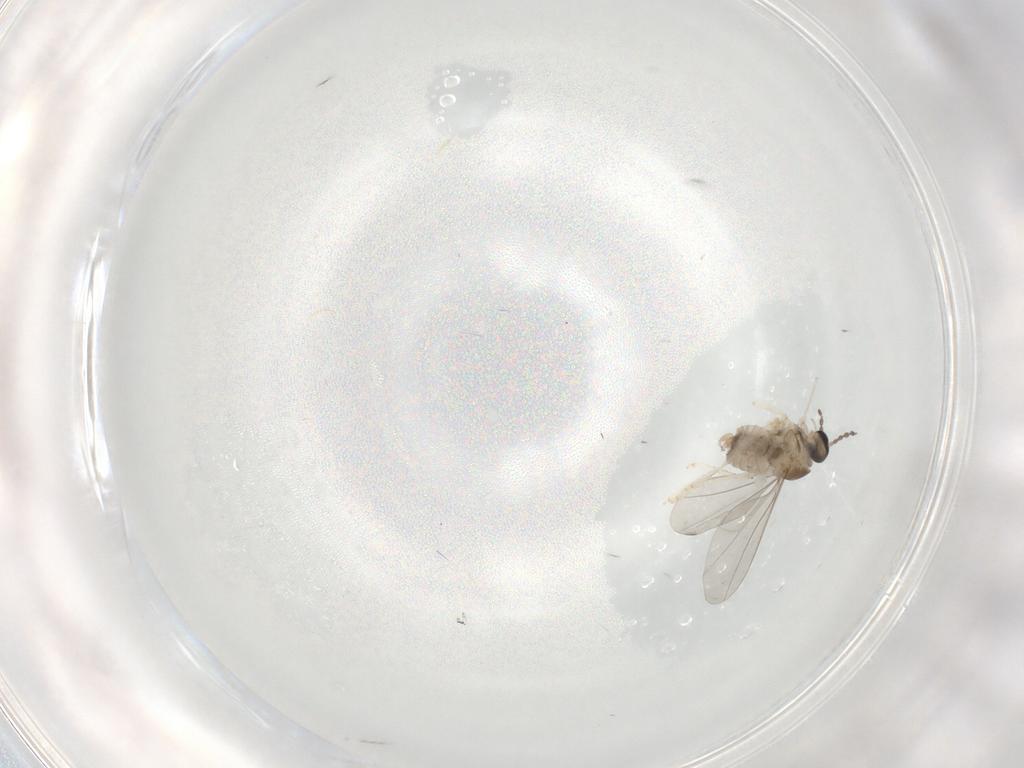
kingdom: Animalia
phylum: Arthropoda
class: Insecta
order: Diptera
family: Cecidomyiidae
